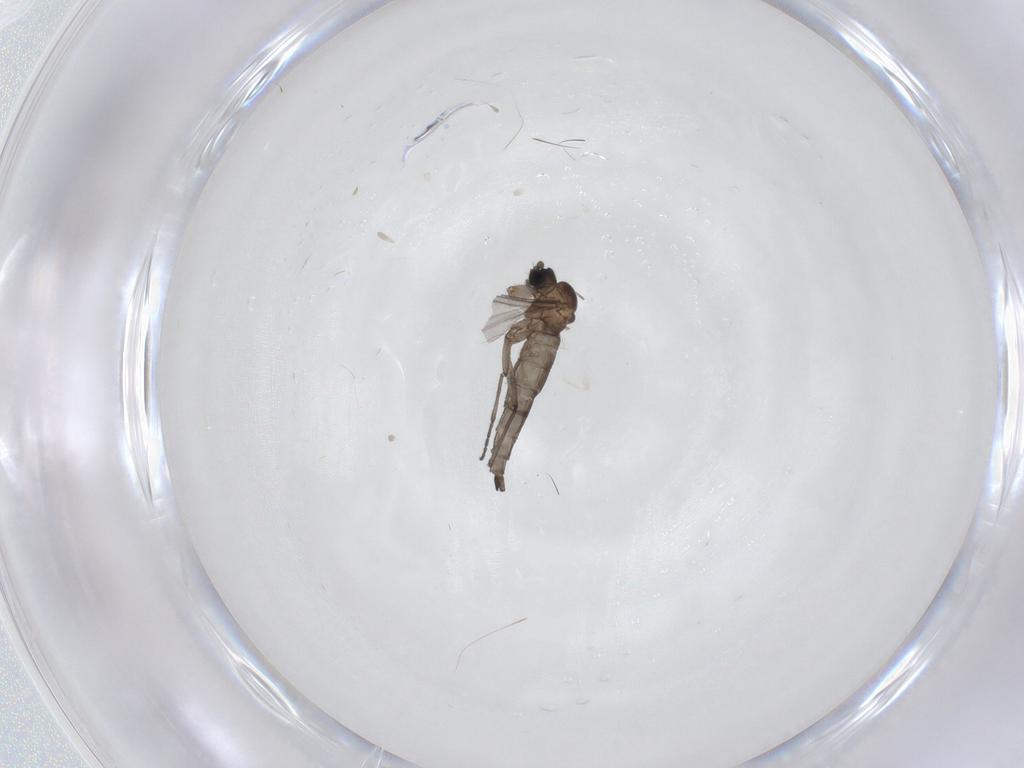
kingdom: Animalia
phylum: Arthropoda
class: Insecta
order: Diptera
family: Sciaridae
